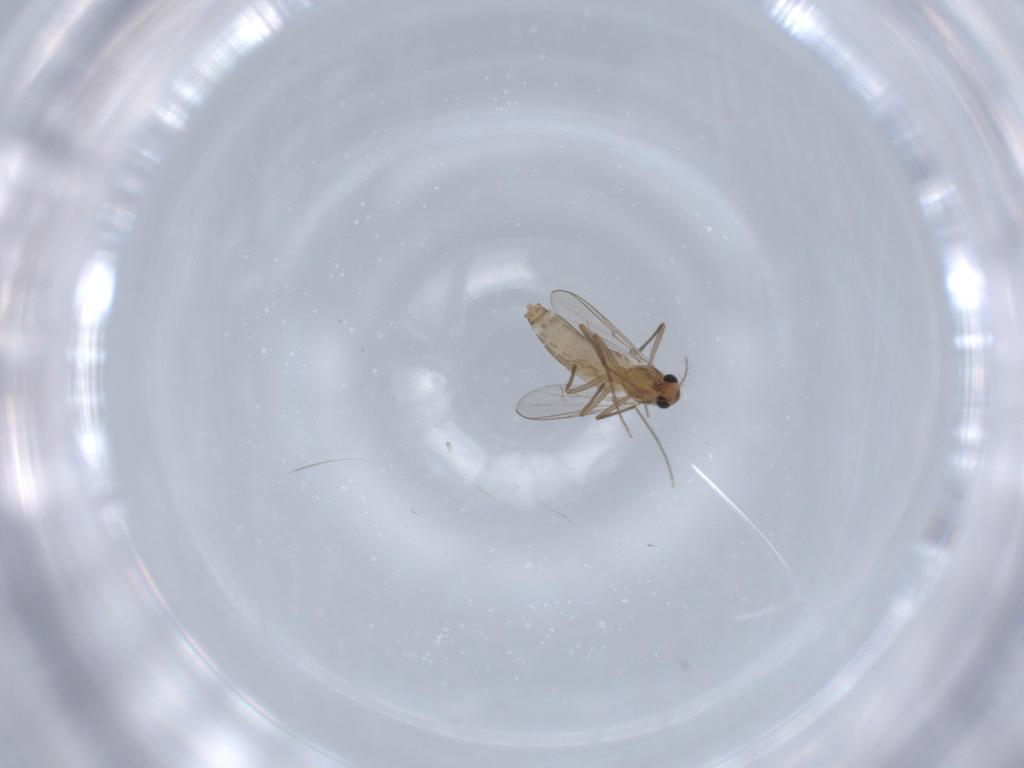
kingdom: Animalia
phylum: Arthropoda
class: Insecta
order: Diptera
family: Chironomidae
